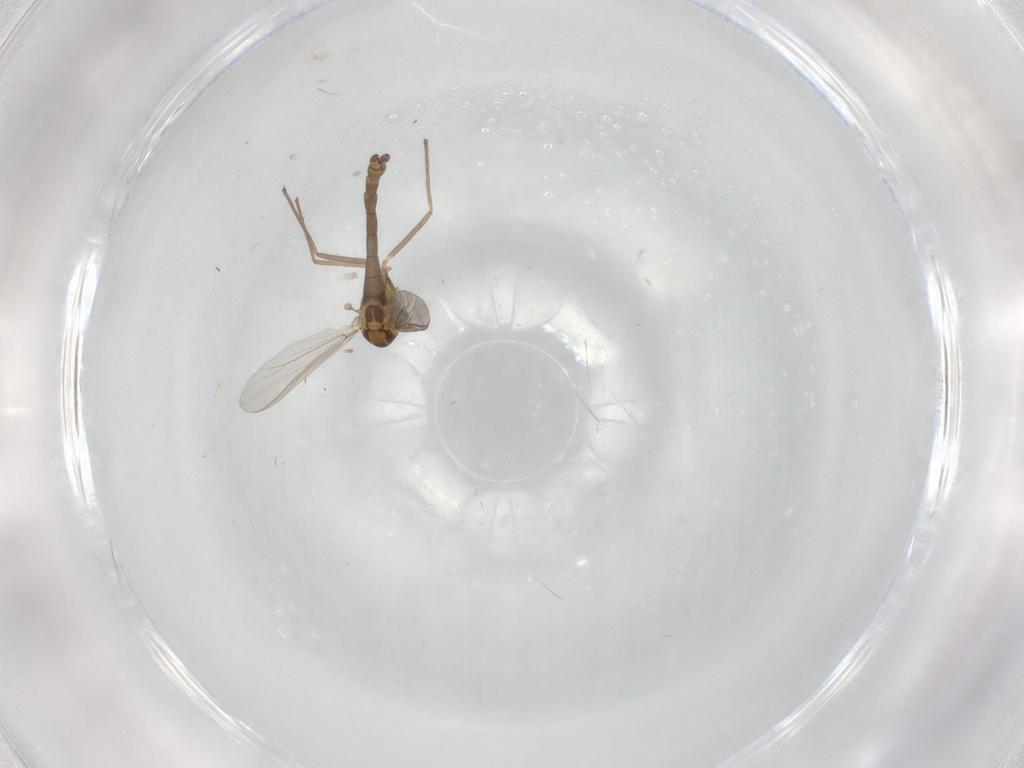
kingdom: Animalia
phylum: Arthropoda
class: Insecta
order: Diptera
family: Chironomidae
